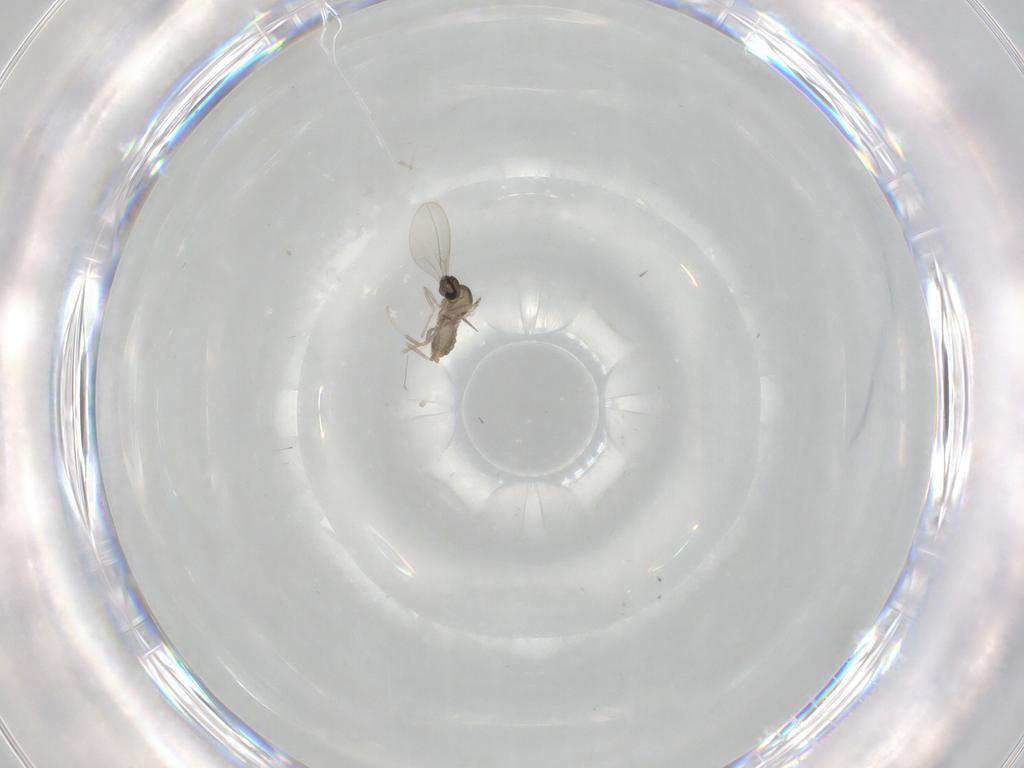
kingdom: Animalia
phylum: Arthropoda
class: Insecta
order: Diptera
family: Cecidomyiidae
